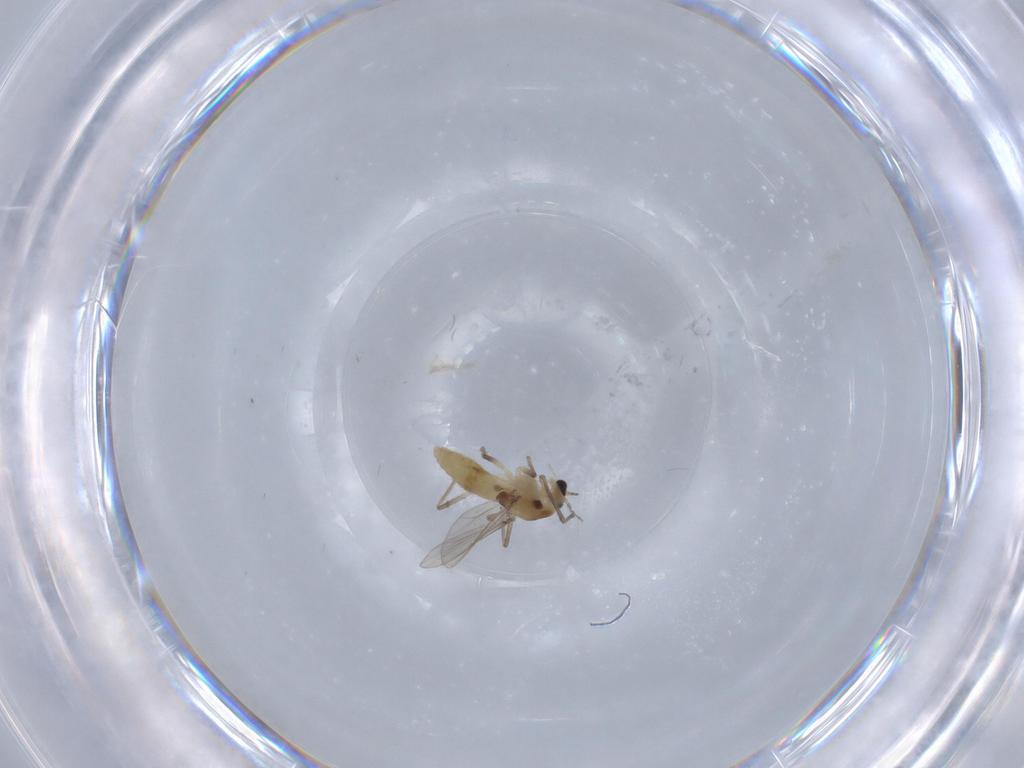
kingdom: Animalia
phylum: Arthropoda
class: Insecta
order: Diptera
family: Chironomidae
